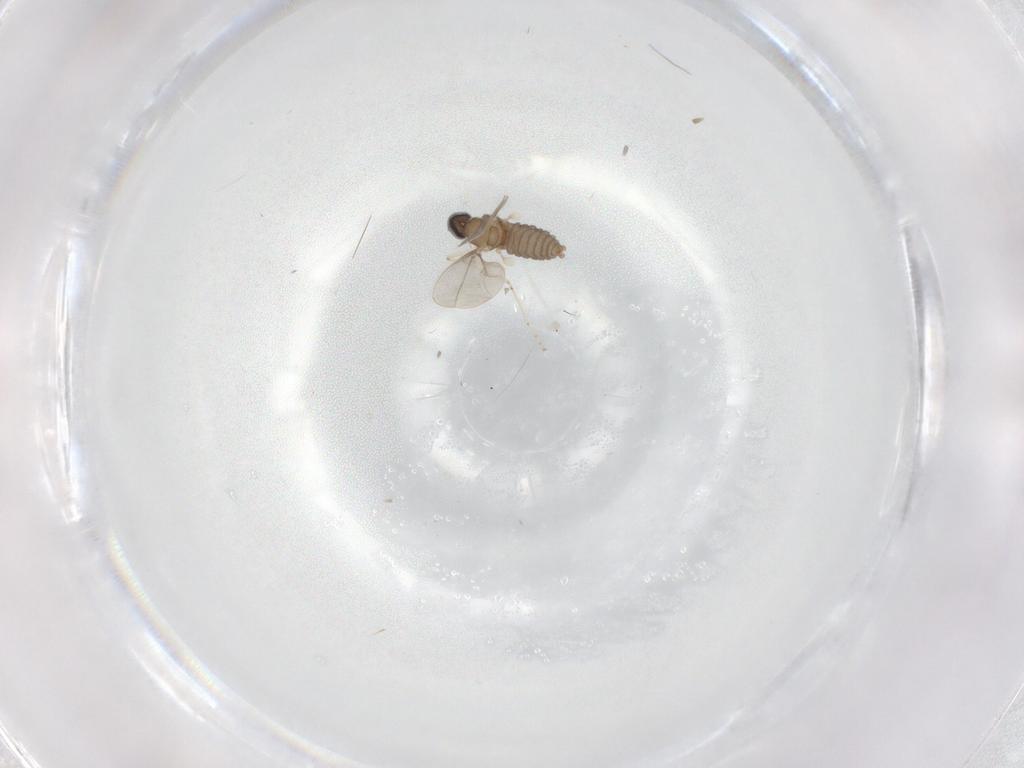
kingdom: Animalia
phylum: Arthropoda
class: Insecta
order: Diptera
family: Cecidomyiidae
